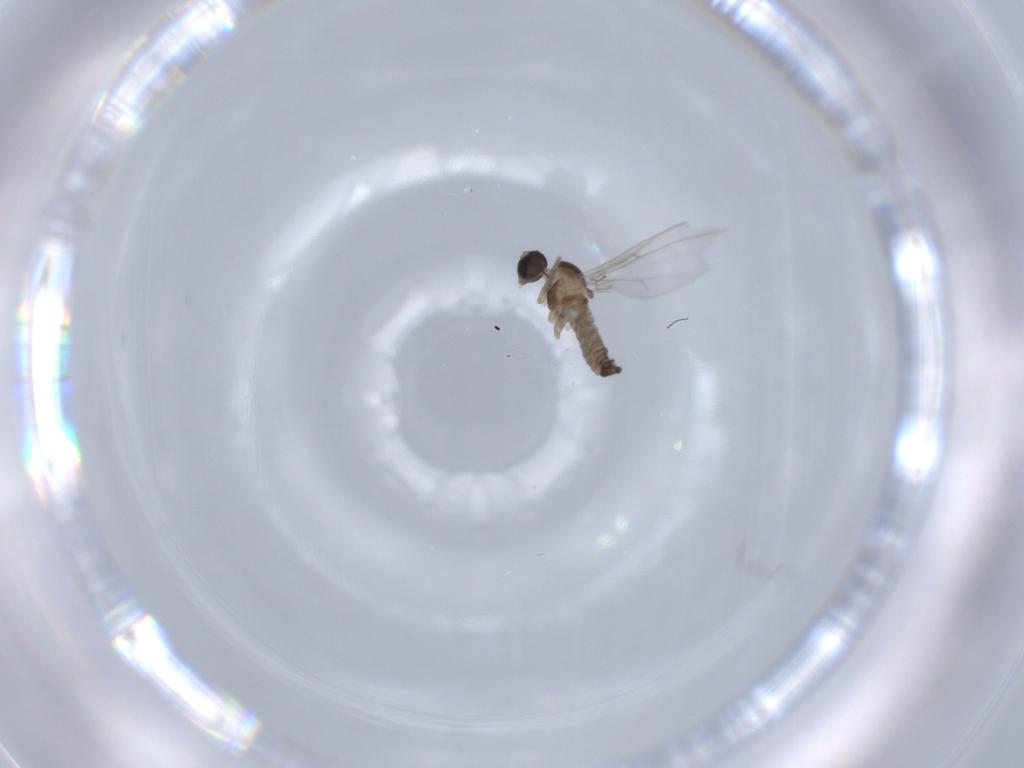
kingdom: Animalia
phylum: Arthropoda
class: Insecta
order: Diptera
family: Cecidomyiidae
